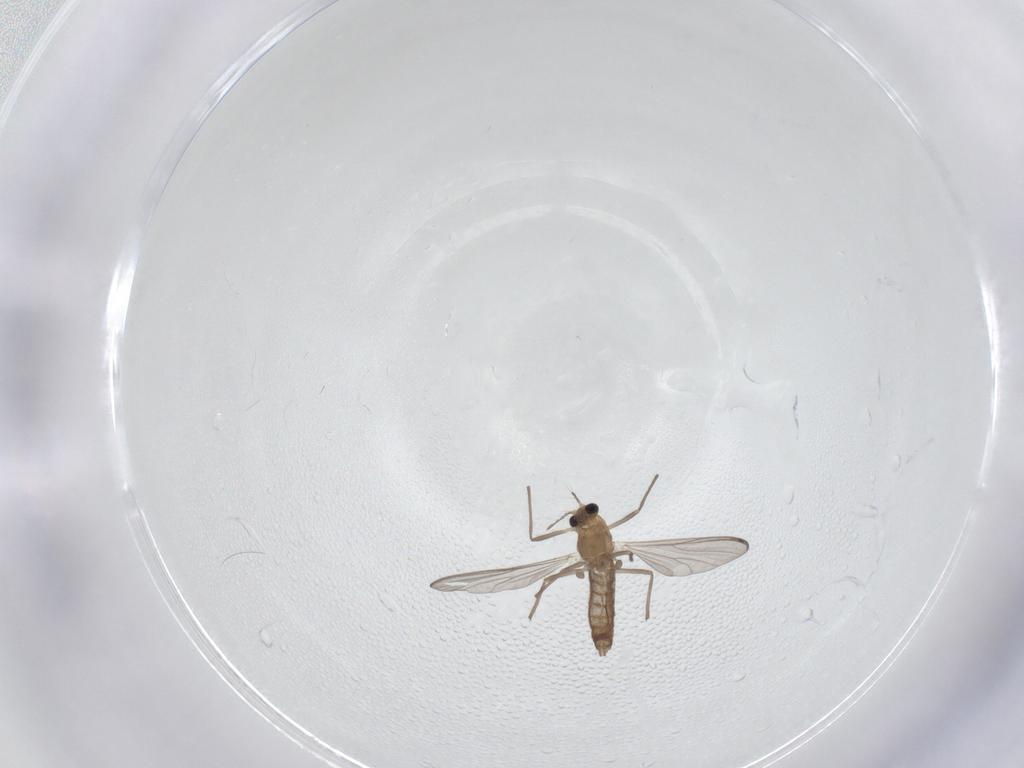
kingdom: Animalia
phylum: Arthropoda
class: Insecta
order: Diptera
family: Chironomidae
